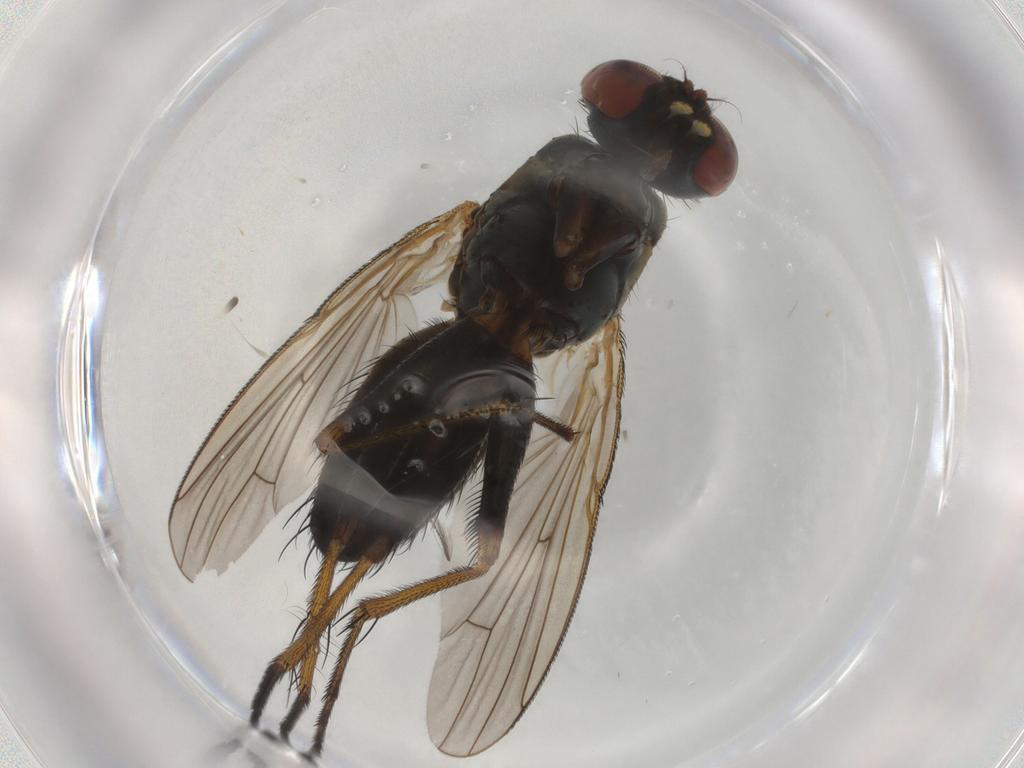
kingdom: Animalia
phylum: Arthropoda
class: Insecta
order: Diptera
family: Muscidae
